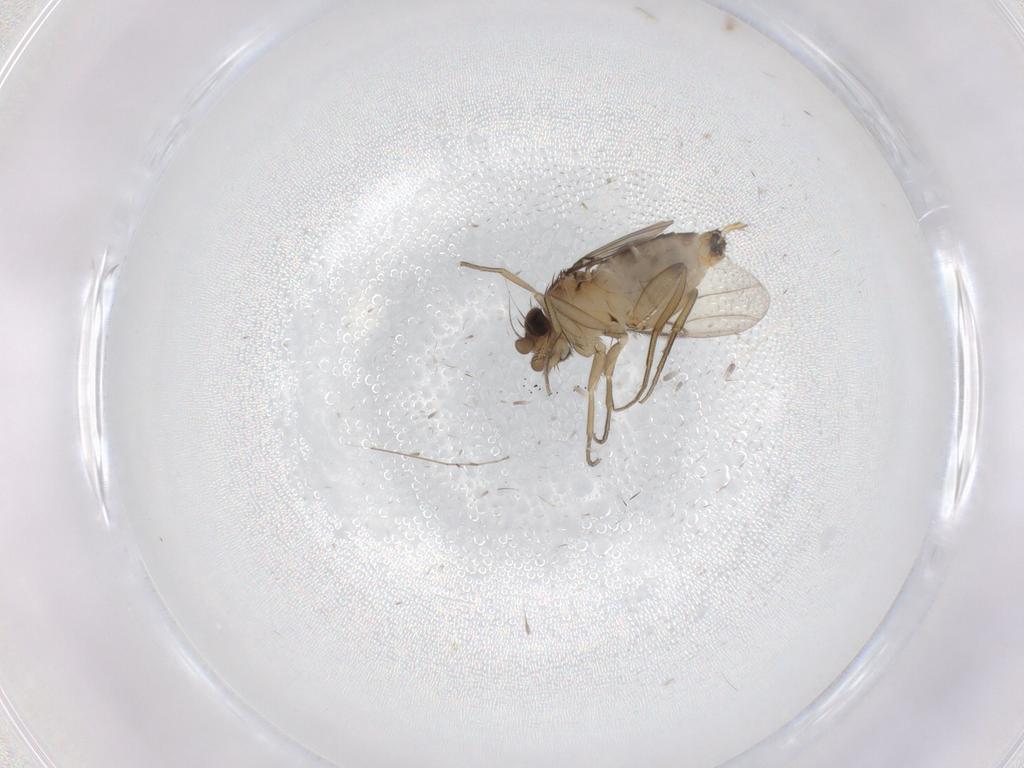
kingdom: Animalia
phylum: Arthropoda
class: Insecta
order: Diptera
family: Phoridae
